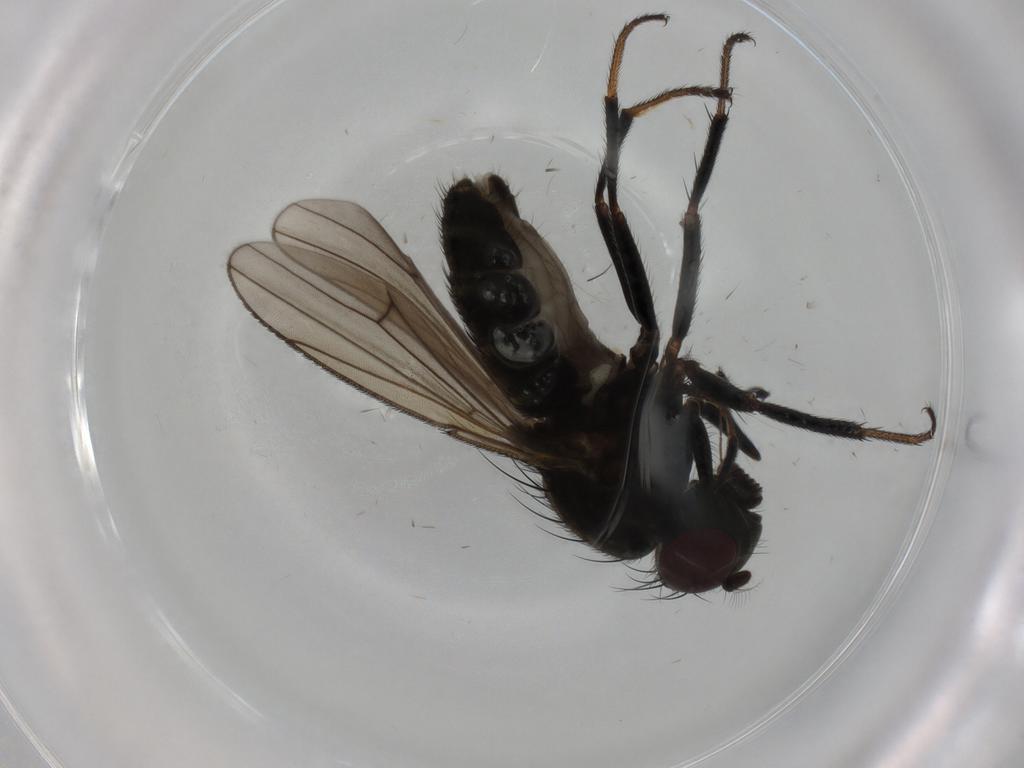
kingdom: Animalia
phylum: Arthropoda
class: Insecta
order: Diptera
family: Ephydridae
